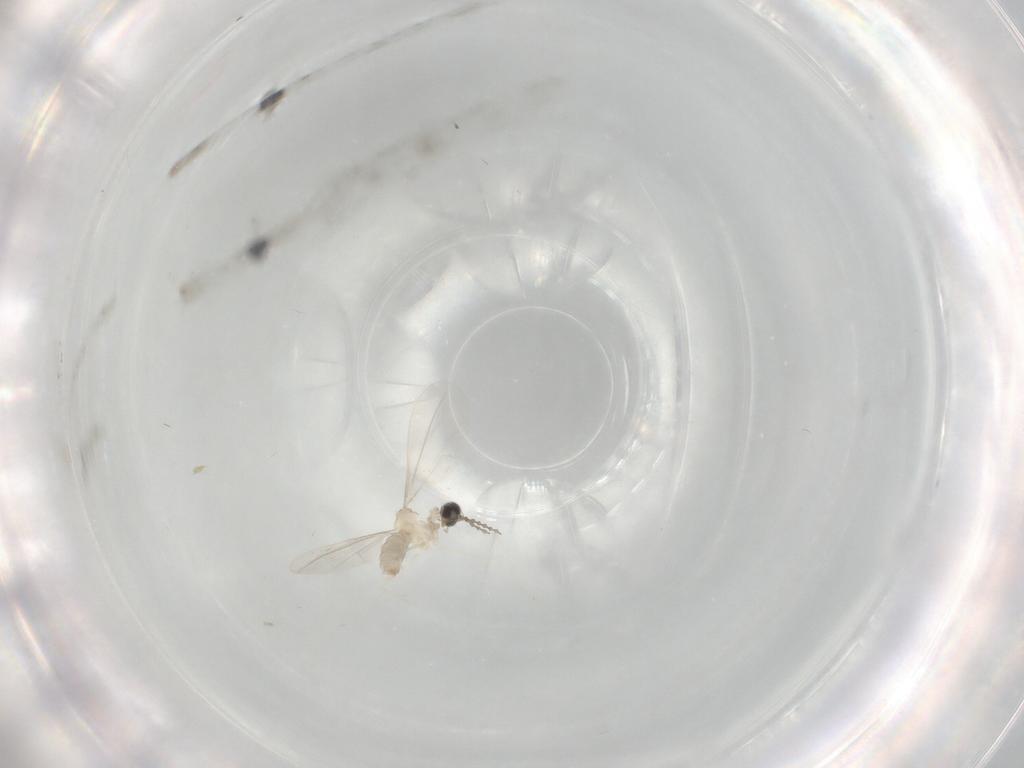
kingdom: Animalia
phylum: Arthropoda
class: Insecta
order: Diptera
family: Cecidomyiidae
